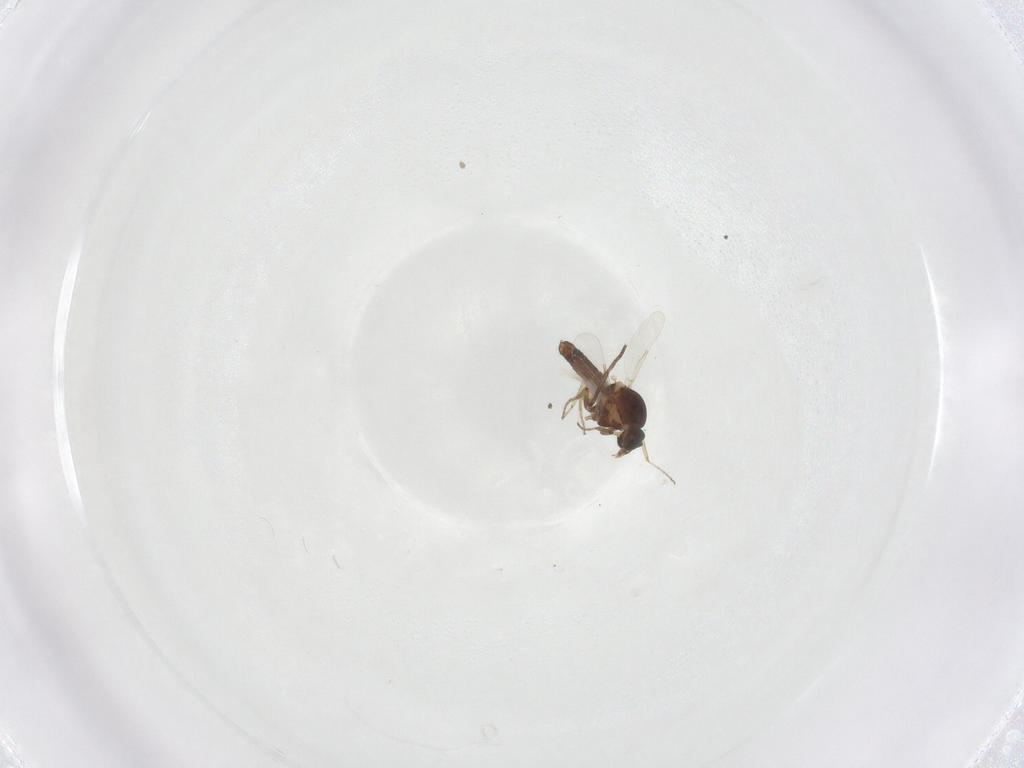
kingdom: Animalia
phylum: Arthropoda
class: Insecta
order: Diptera
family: Ceratopogonidae
